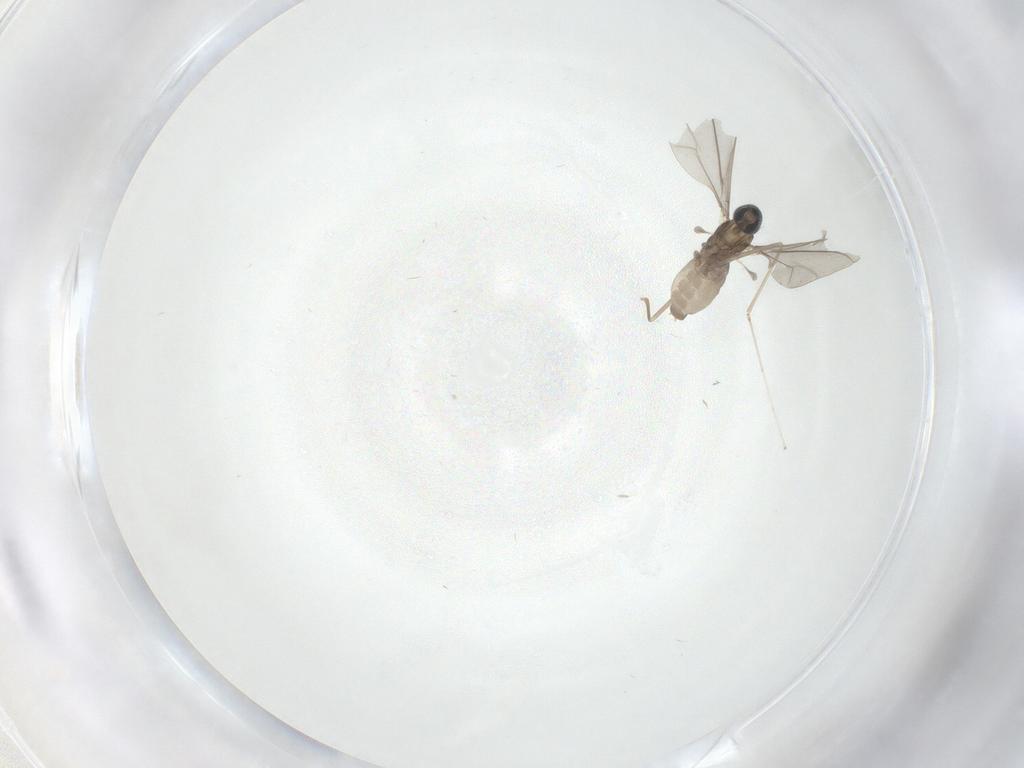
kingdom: Animalia
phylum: Arthropoda
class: Insecta
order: Diptera
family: Cecidomyiidae
